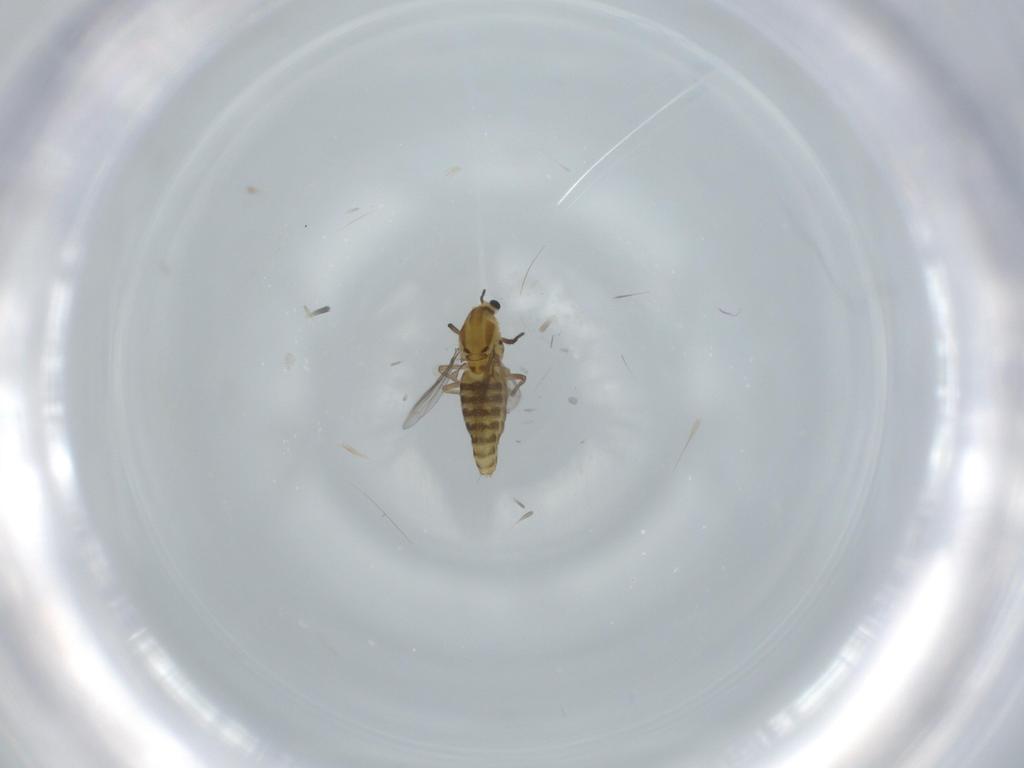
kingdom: Animalia
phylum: Arthropoda
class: Insecta
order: Diptera
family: Chironomidae
